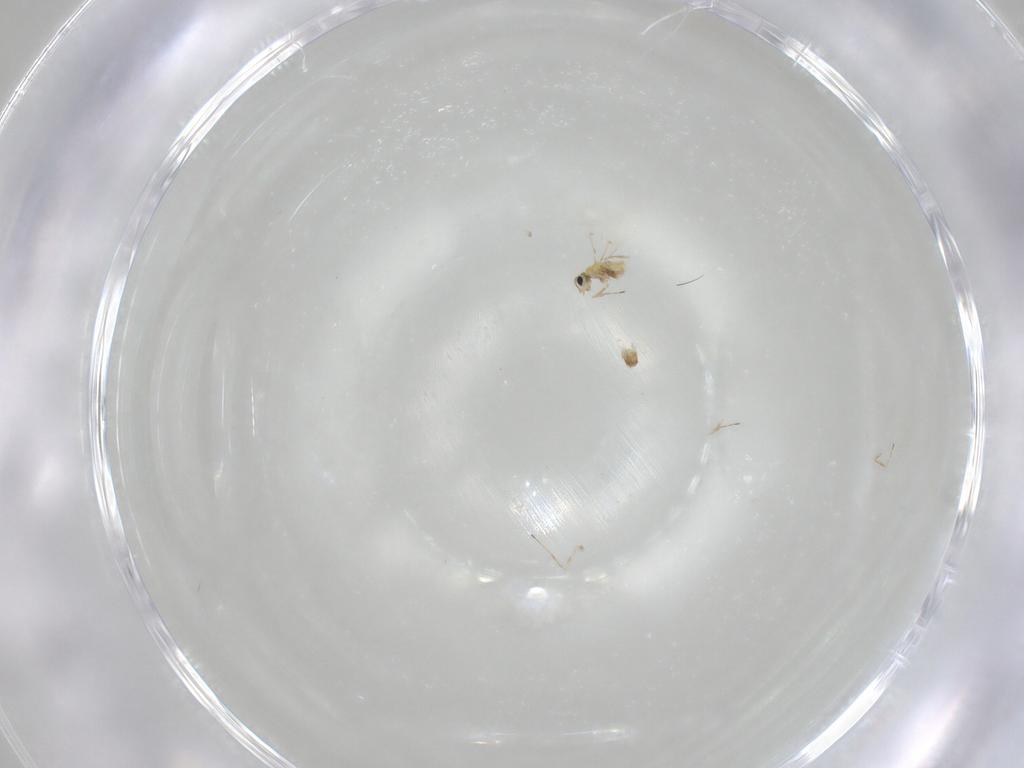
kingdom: Animalia
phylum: Arthropoda
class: Insecta
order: Hymenoptera
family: Trichogrammatidae
